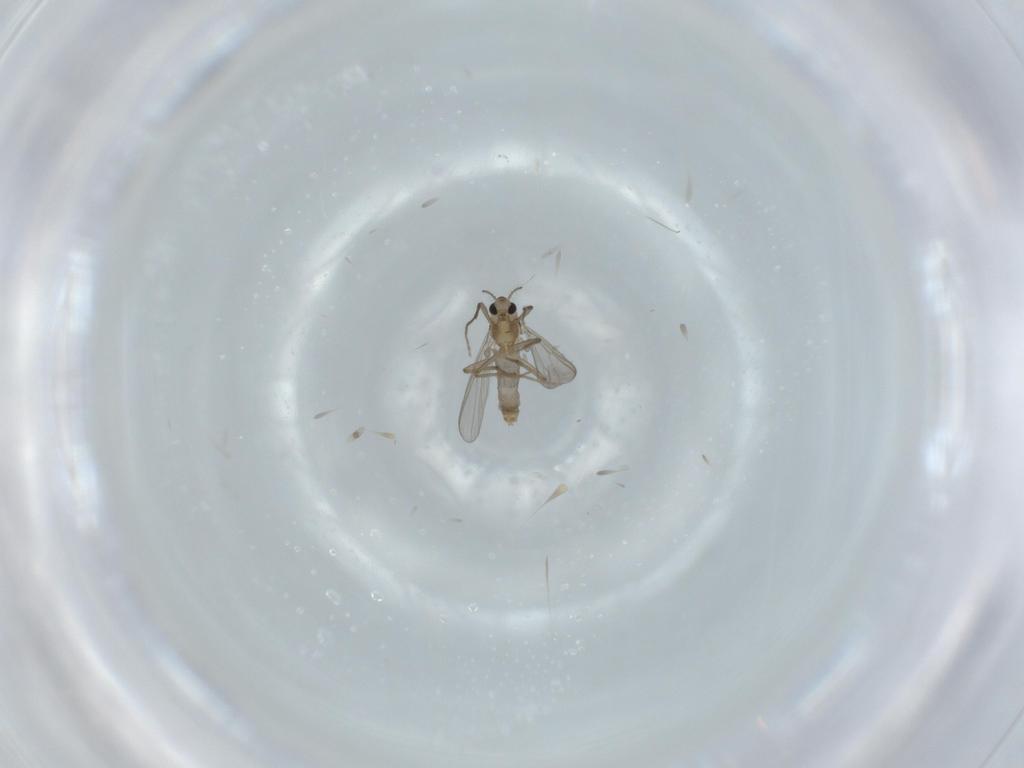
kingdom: Animalia
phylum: Arthropoda
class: Insecta
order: Diptera
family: Chironomidae
